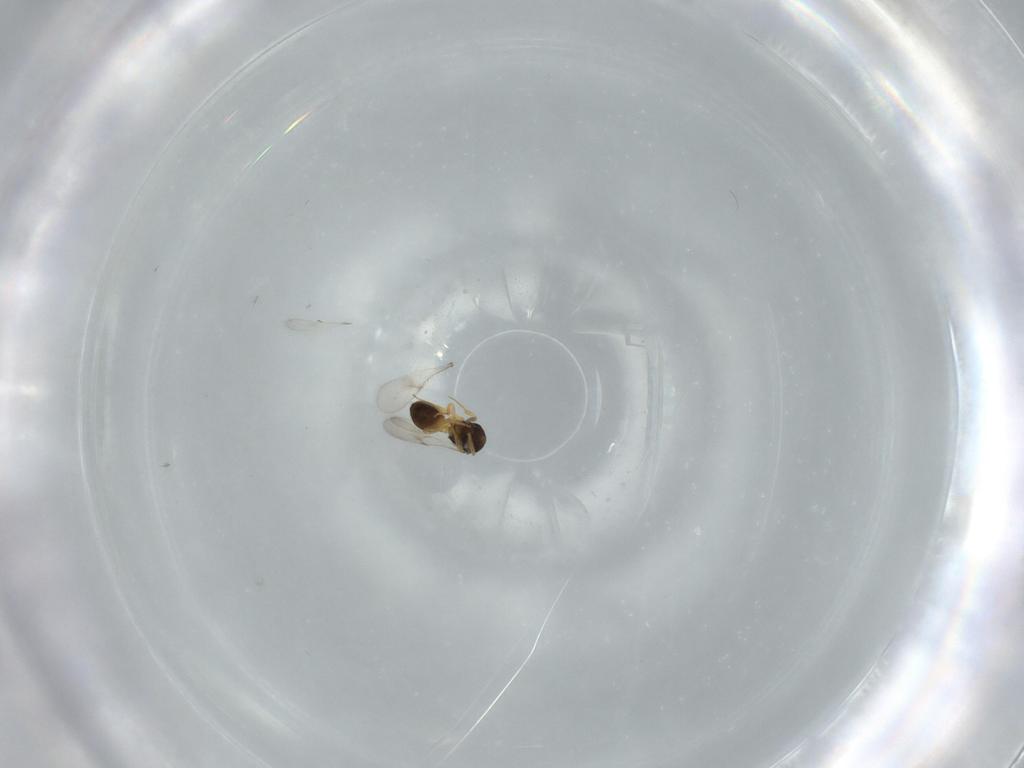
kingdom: Animalia
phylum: Arthropoda
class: Insecta
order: Hymenoptera
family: Scelionidae
